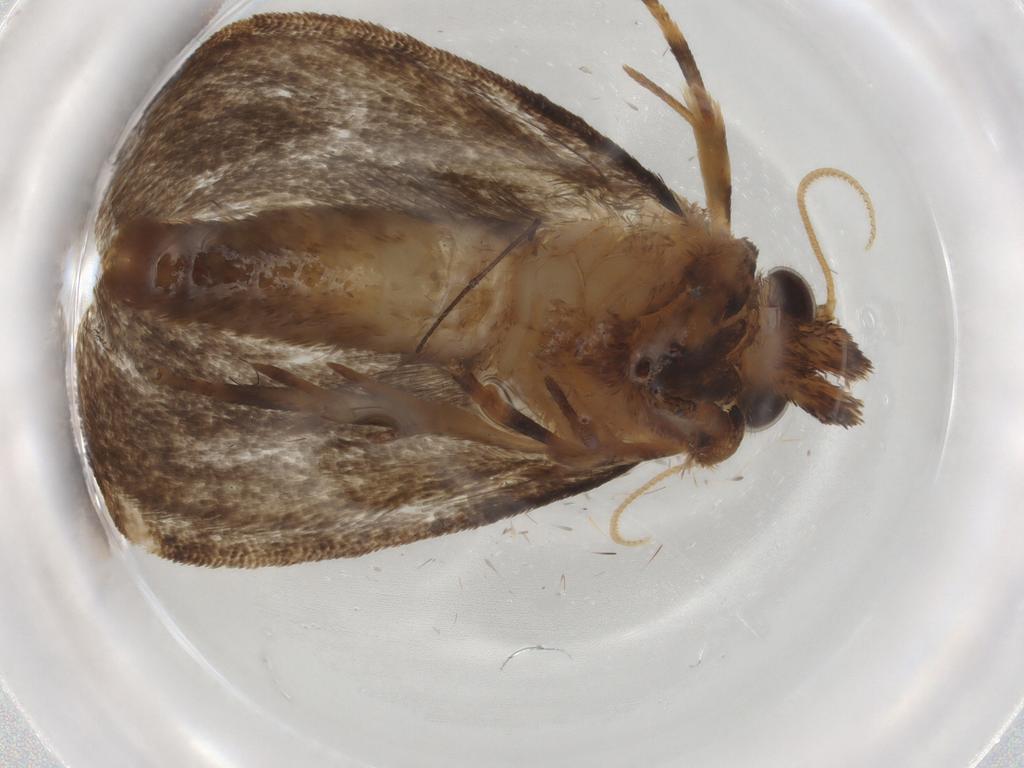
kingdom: Animalia
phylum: Arthropoda
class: Insecta
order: Lepidoptera
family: Tineidae
